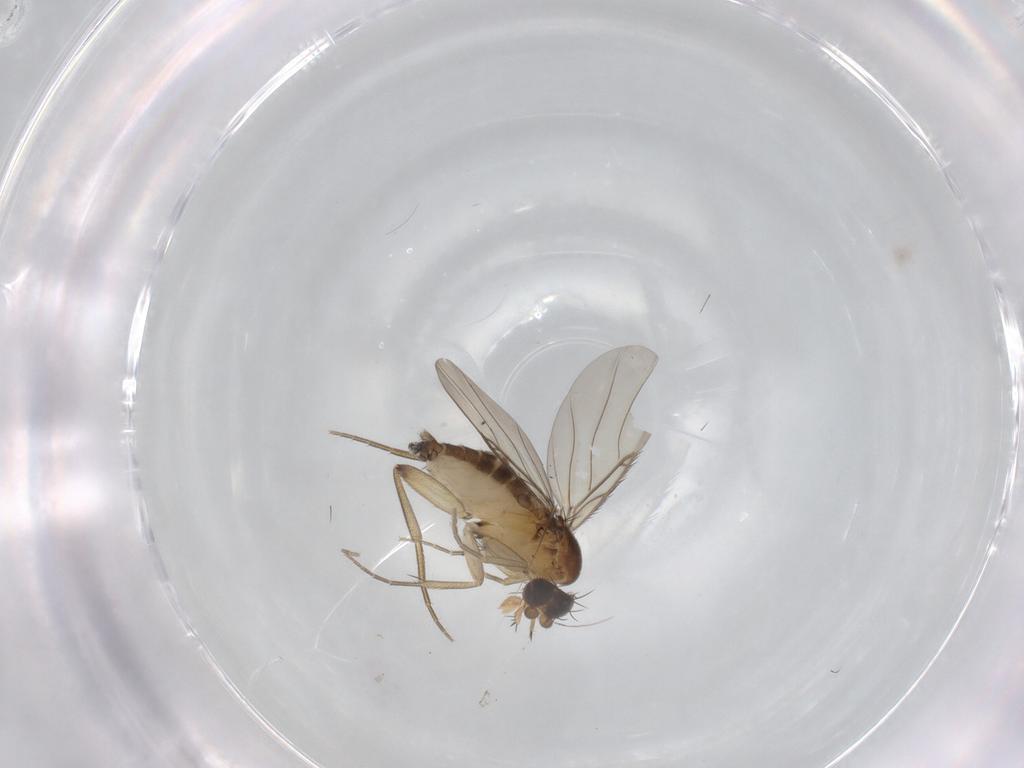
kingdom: Animalia
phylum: Arthropoda
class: Insecta
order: Diptera
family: Phoridae
